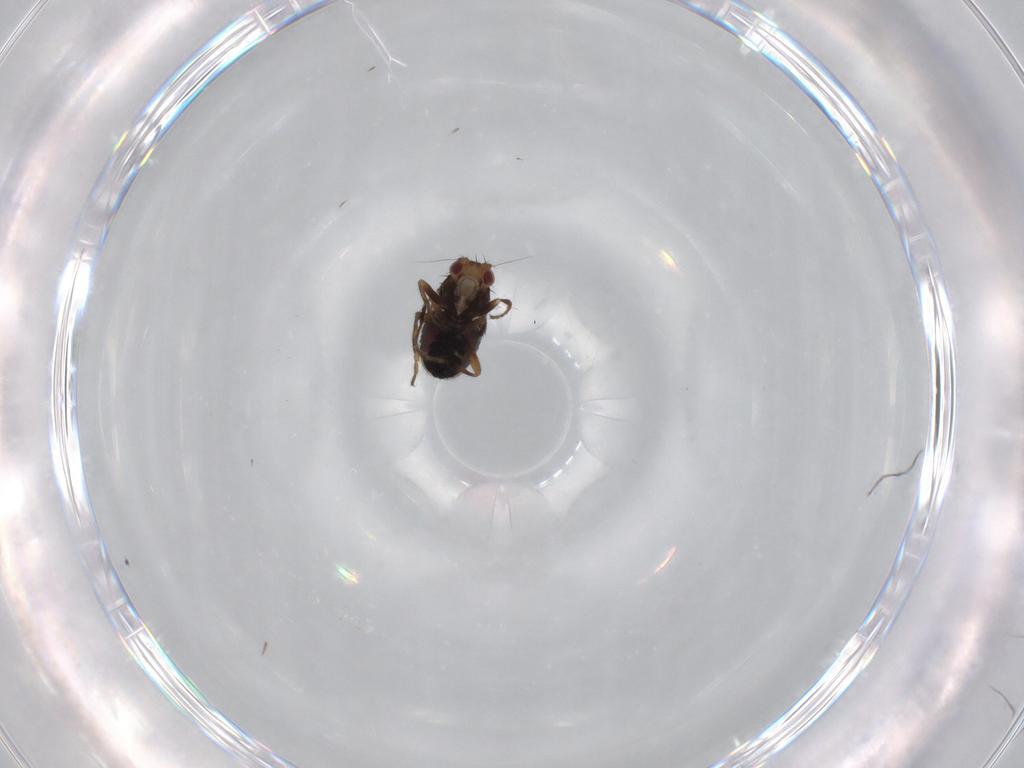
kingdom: Animalia
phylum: Arthropoda
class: Insecta
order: Diptera
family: Sphaeroceridae
